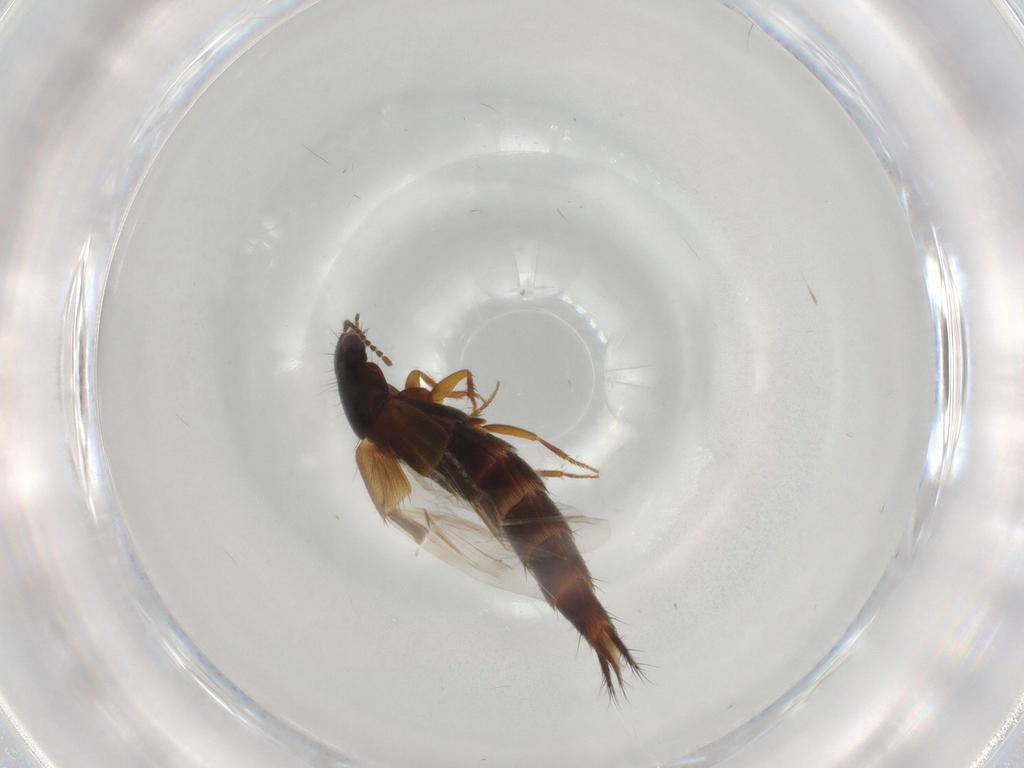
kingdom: Animalia
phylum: Arthropoda
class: Insecta
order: Coleoptera
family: Staphylinidae
